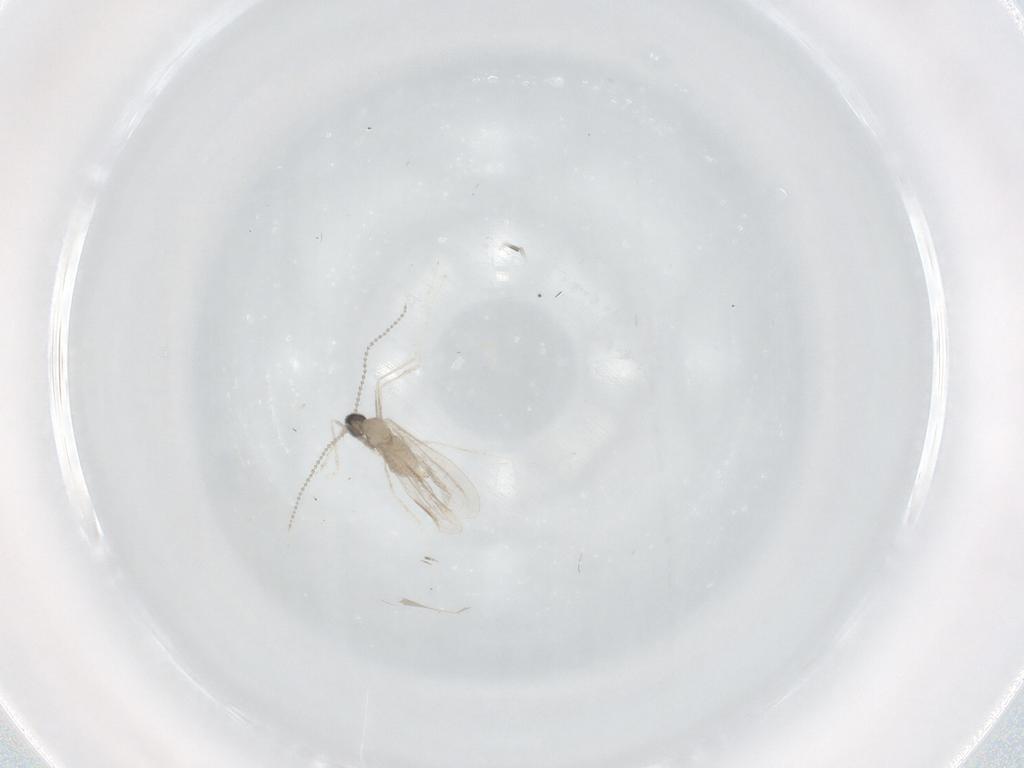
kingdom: Animalia
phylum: Arthropoda
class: Insecta
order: Diptera
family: Cecidomyiidae
